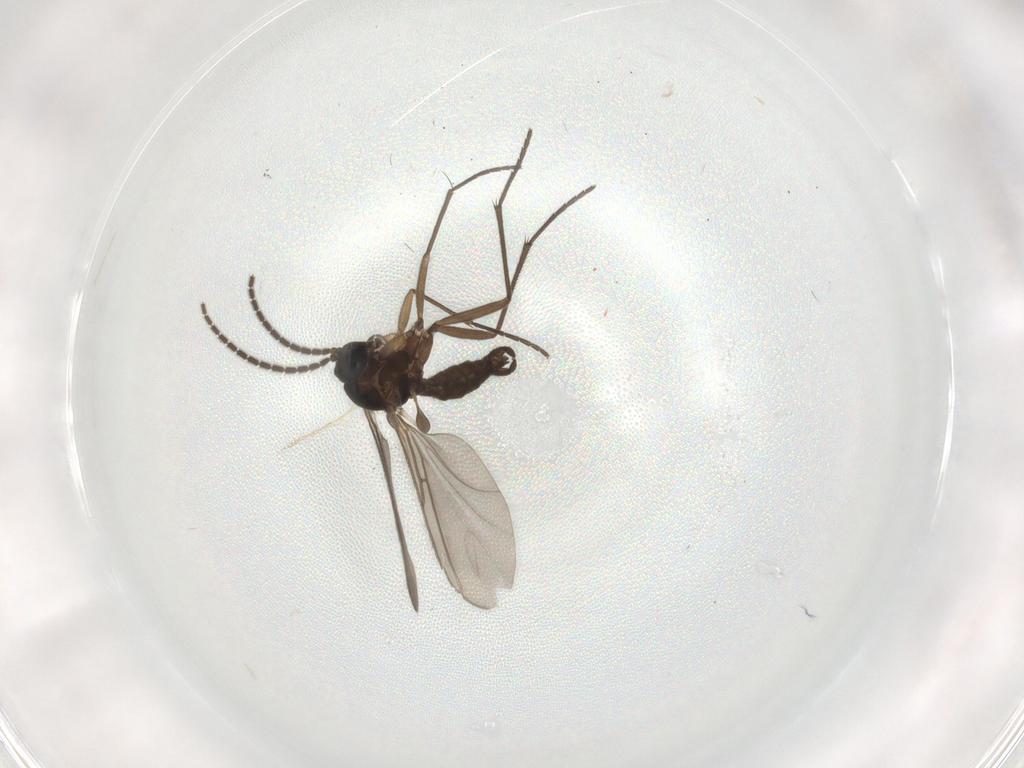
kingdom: Animalia
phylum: Arthropoda
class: Insecta
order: Diptera
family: Sciaridae
